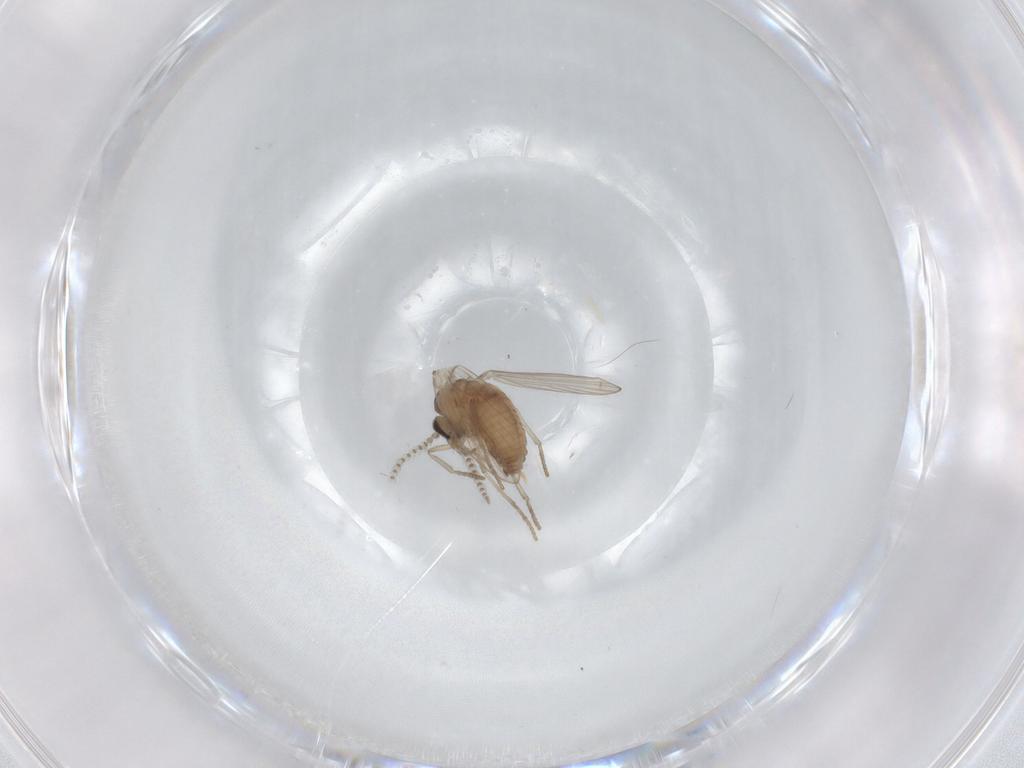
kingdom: Animalia
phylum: Arthropoda
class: Insecta
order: Diptera
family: Psychodidae
